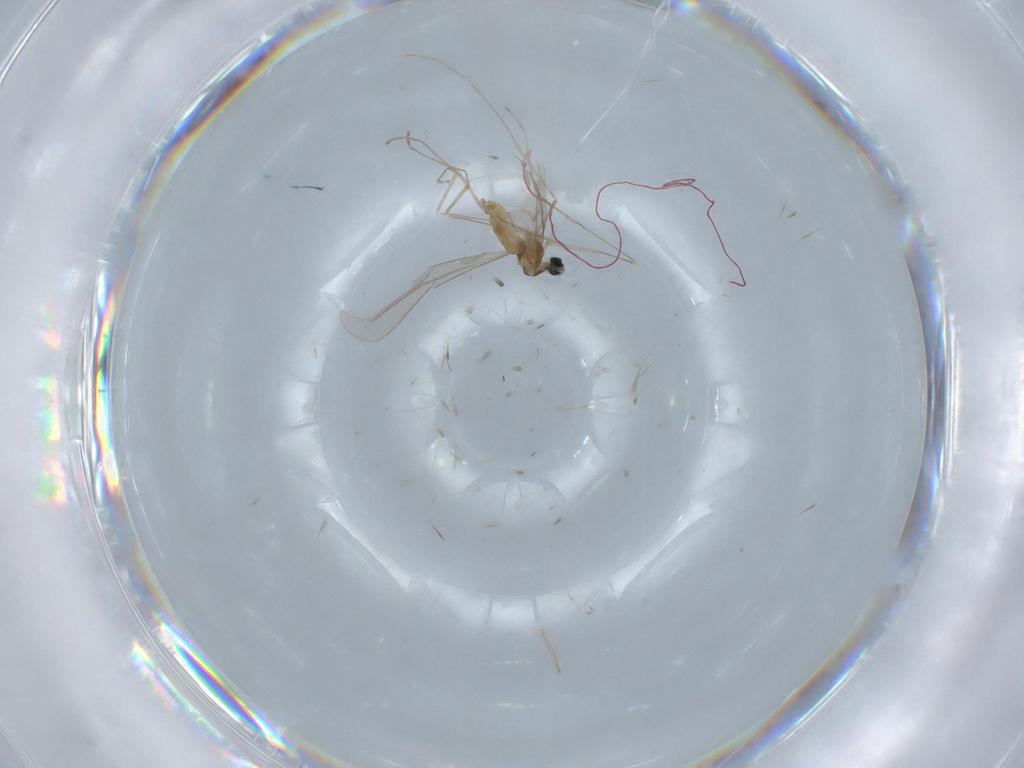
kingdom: Animalia
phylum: Arthropoda
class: Insecta
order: Diptera
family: Cecidomyiidae
